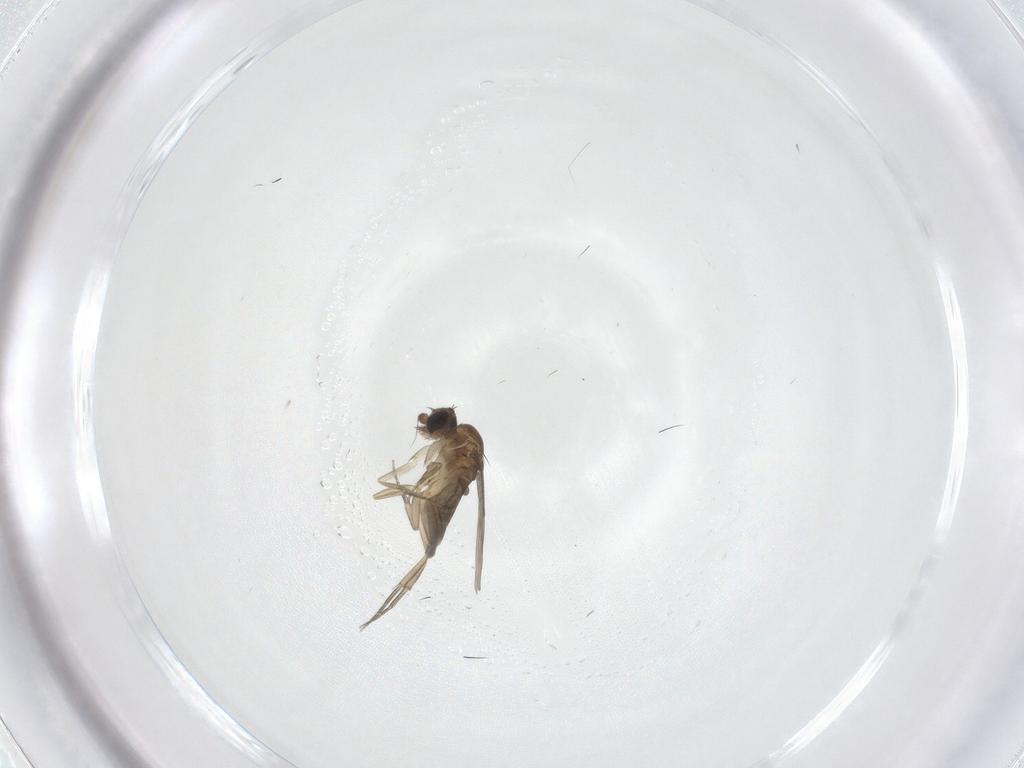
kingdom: Animalia
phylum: Arthropoda
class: Insecta
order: Diptera
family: Phoridae
